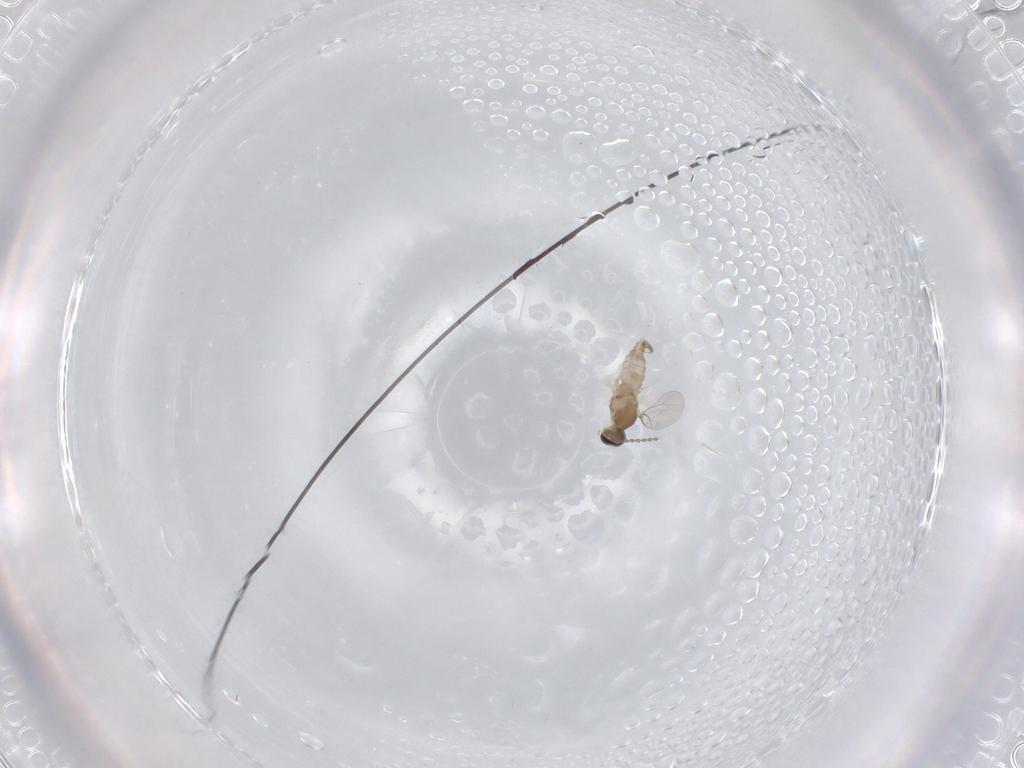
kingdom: Animalia
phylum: Arthropoda
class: Insecta
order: Diptera
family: Cecidomyiidae
